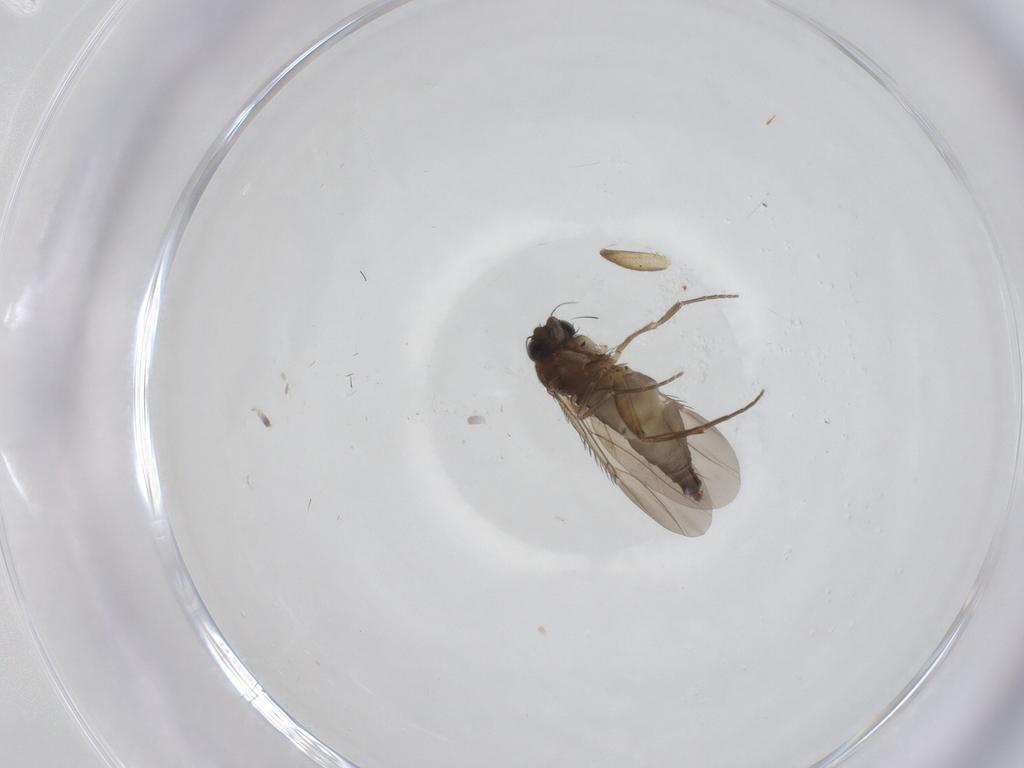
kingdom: Animalia
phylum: Arthropoda
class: Insecta
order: Diptera
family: Phoridae
